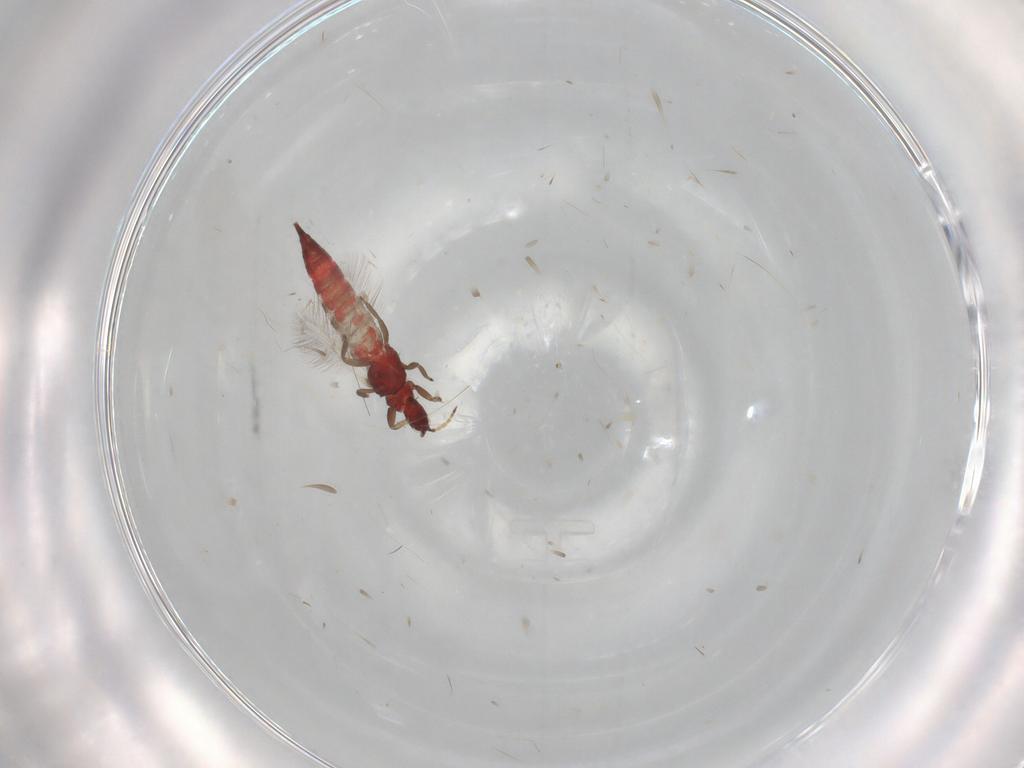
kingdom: Animalia
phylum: Arthropoda
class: Insecta
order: Thysanoptera
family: Phlaeothripidae
